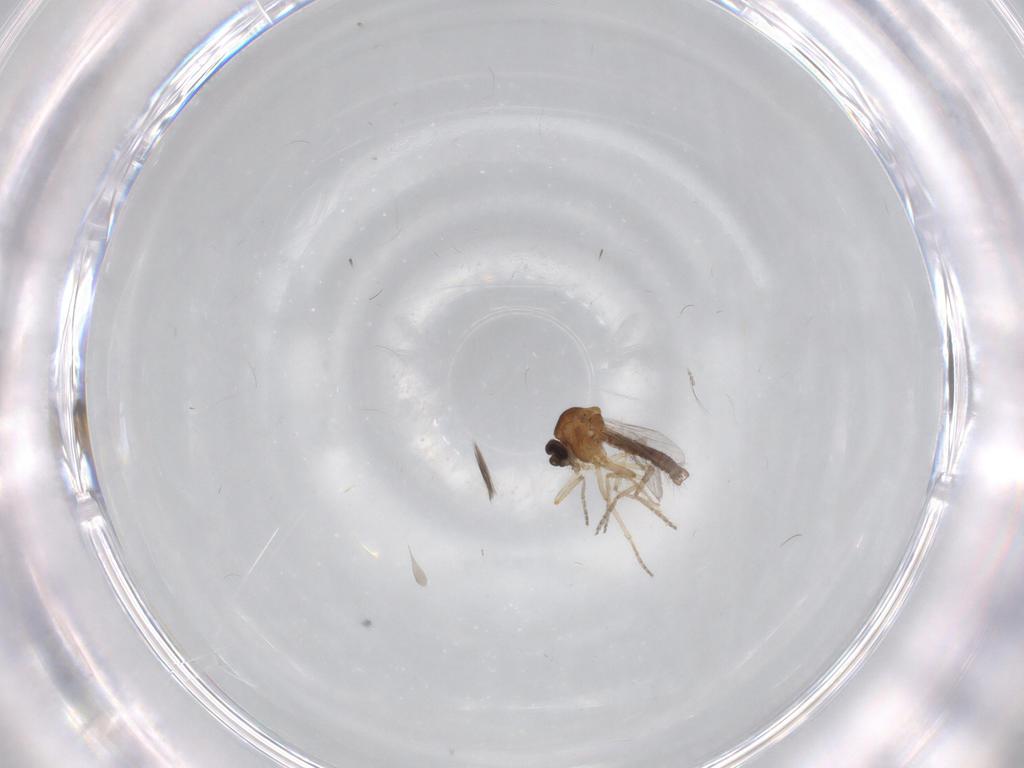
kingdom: Animalia
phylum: Arthropoda
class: Insecta
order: Diptera
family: Ceratopogonidae
